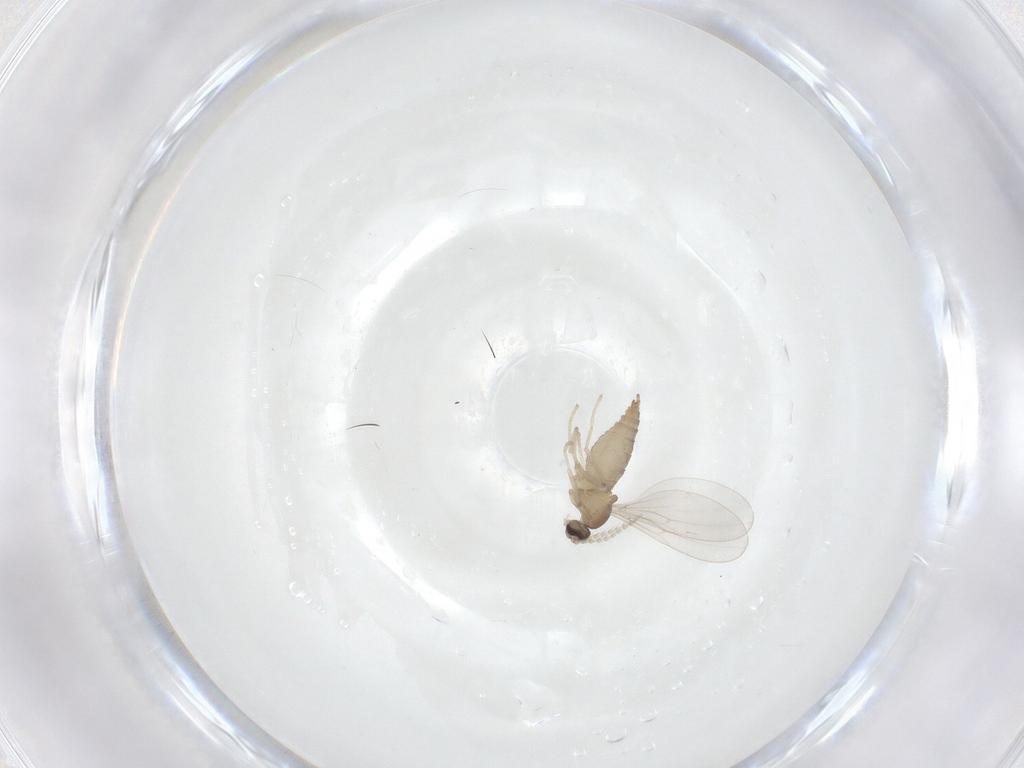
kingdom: Animalia
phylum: Arthropoda
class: Insecta
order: Diptera
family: Cecidomyiidae
